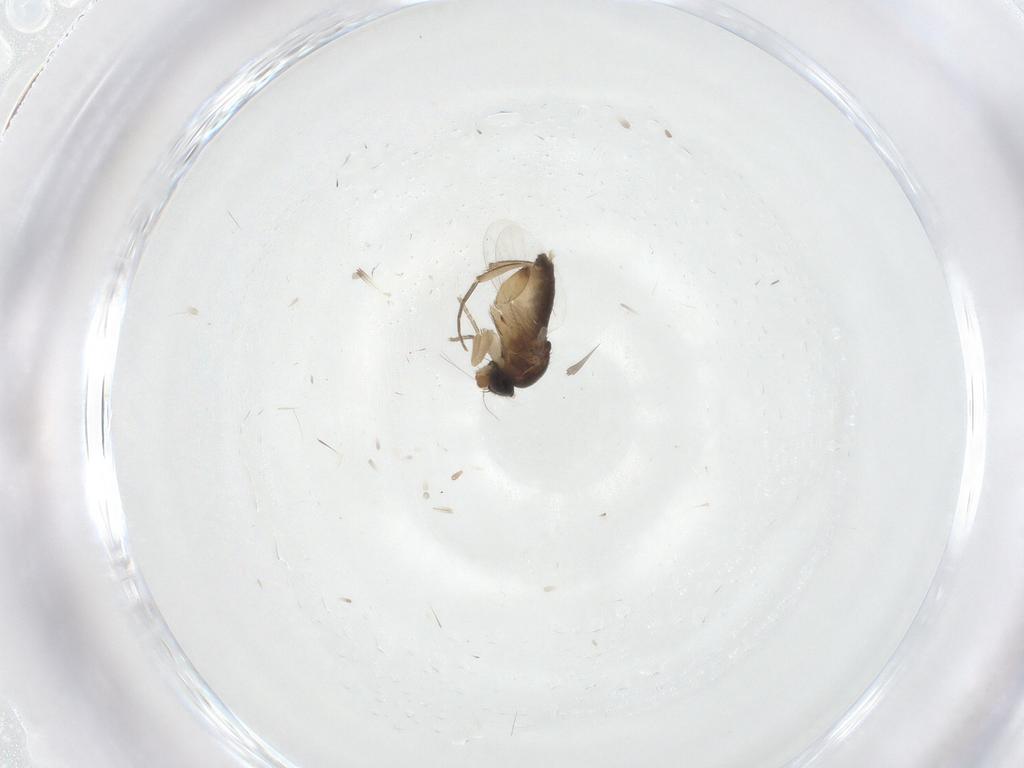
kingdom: Animalia
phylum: Arthropoda
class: Insecta
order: Diptera
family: Phoridae
